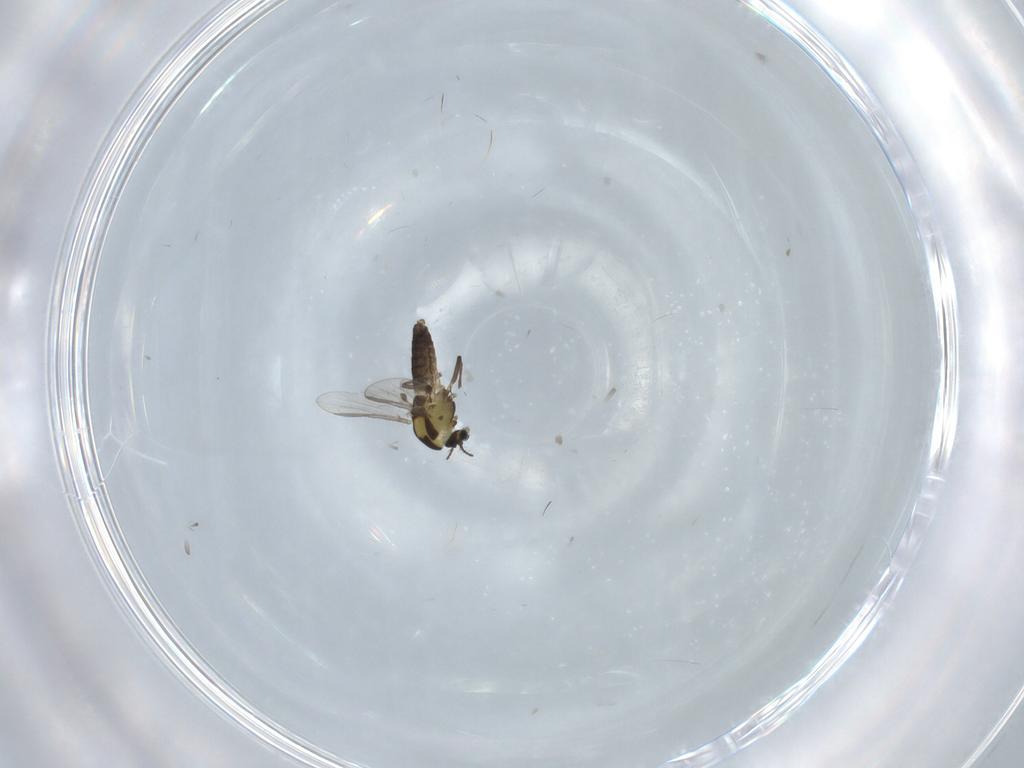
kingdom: Animalia
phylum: Arthropoda
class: Insecta
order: Diptera
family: Chironomidae
